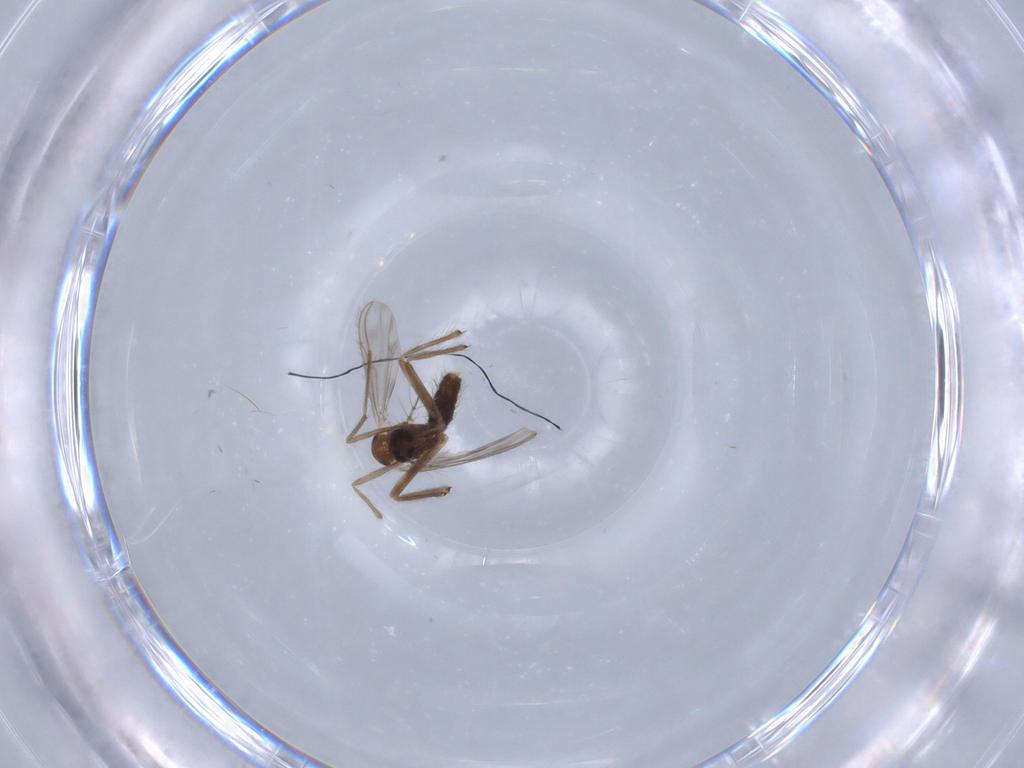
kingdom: Animalia
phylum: Arthropoda
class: Insecta
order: Diptera
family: Chironomidae
